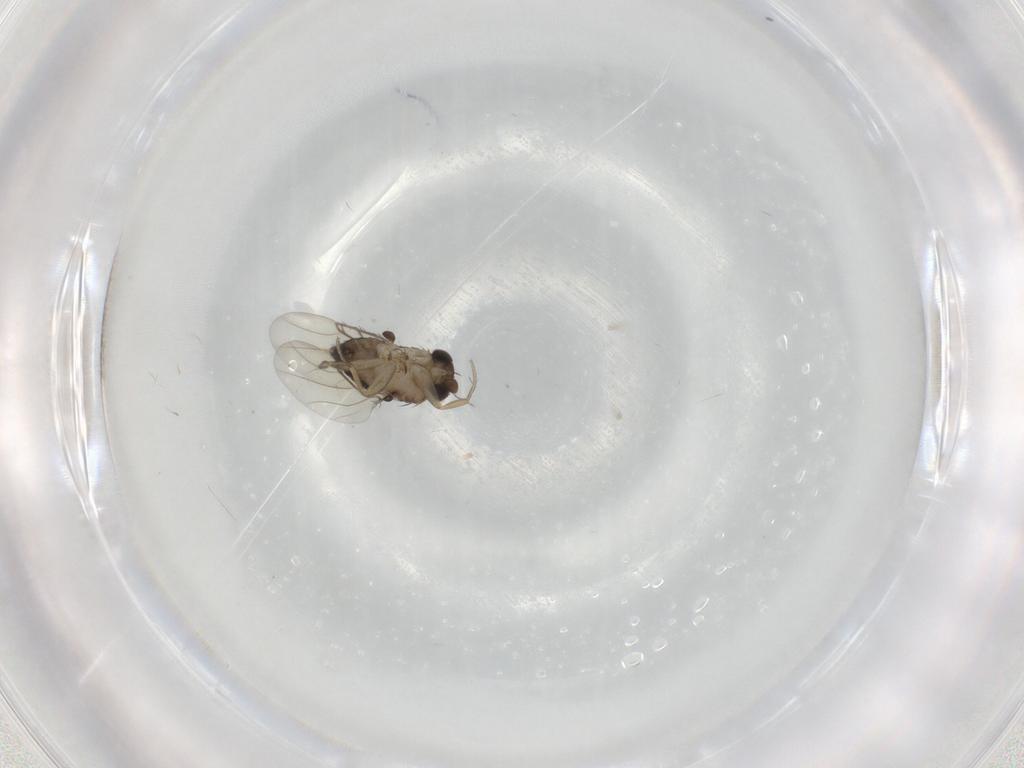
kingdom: Animalia
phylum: Arthropoda
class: Insecta
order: Diptera
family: Phoridae
